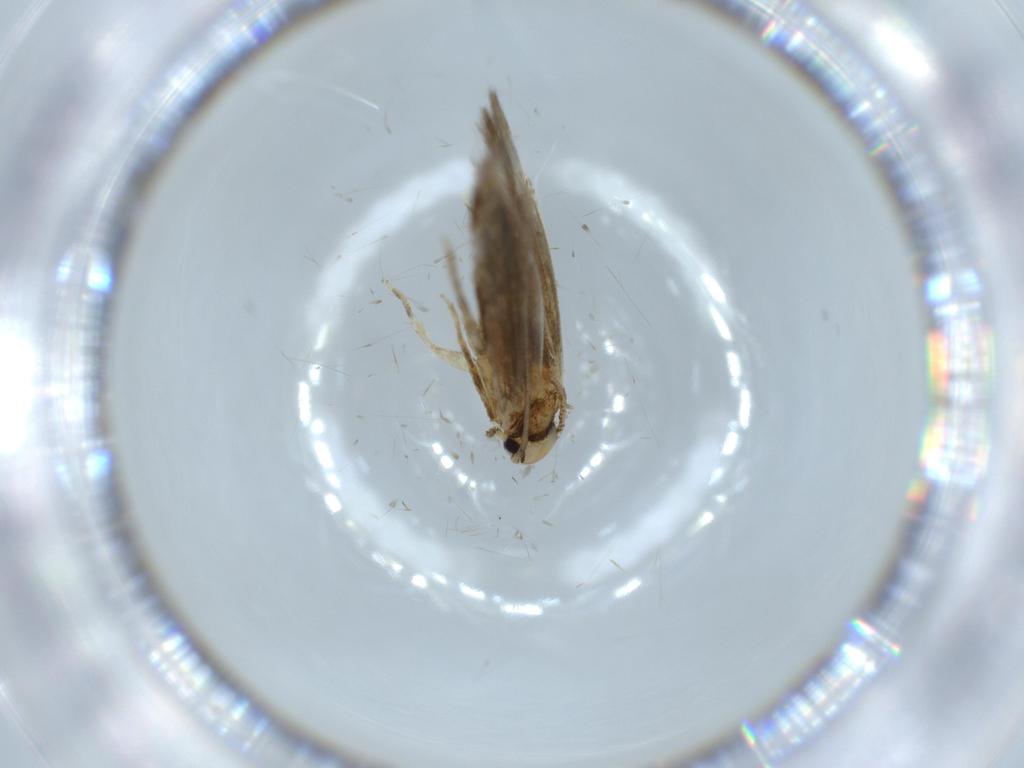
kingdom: Animalia
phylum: Arthropoda
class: Insecta
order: Lepidoptera
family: Tineidae
